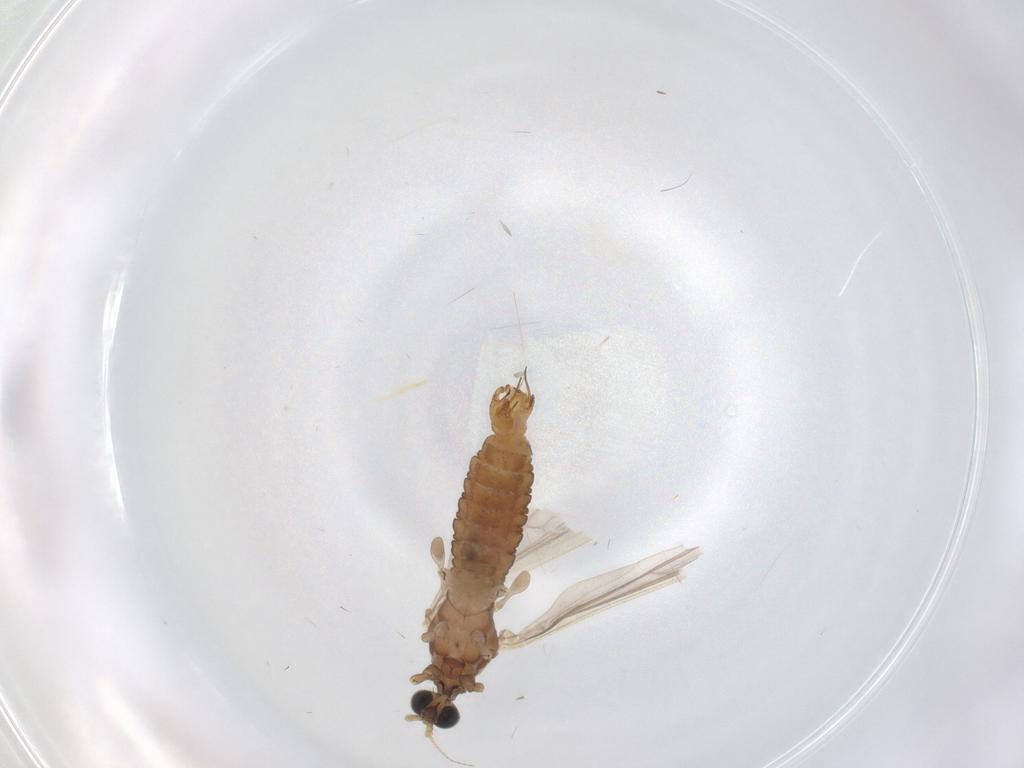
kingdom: Animalia
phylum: Arthropoda
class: Insecta
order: Diptera
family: Limoniidae
